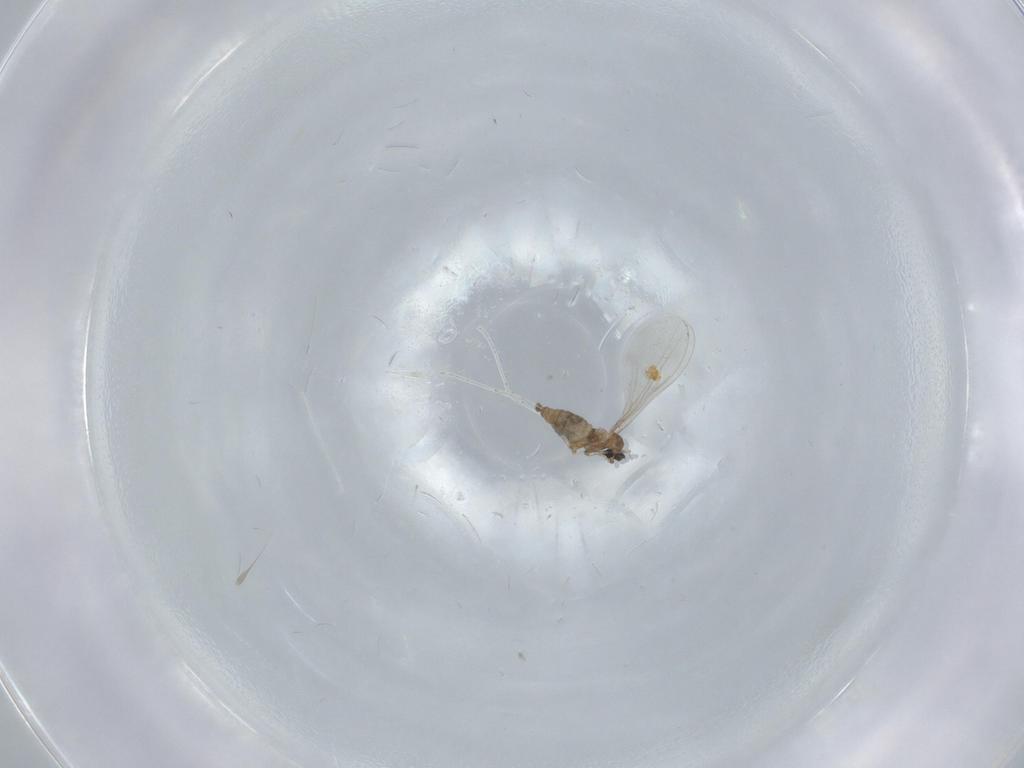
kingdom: Animalia
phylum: Arthropoda
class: Insecta
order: Diptera
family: Cecidomyiidae
